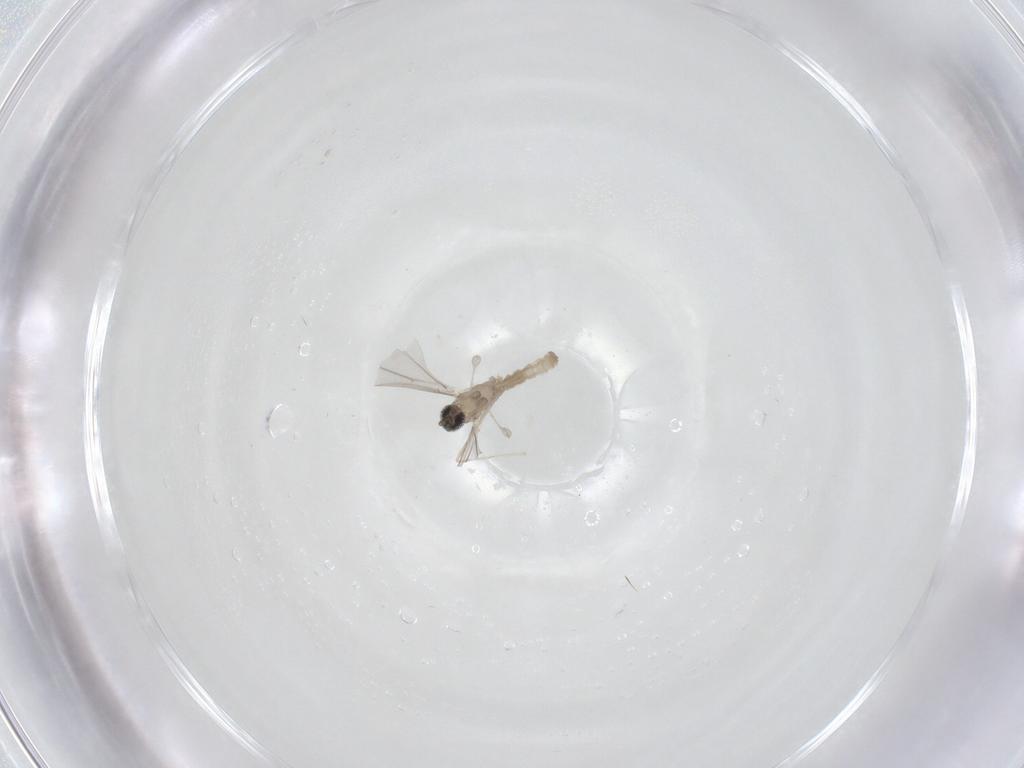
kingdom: Animalia
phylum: Arthropoda
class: Insecta
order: Diptera
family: Cecidomyiidae
